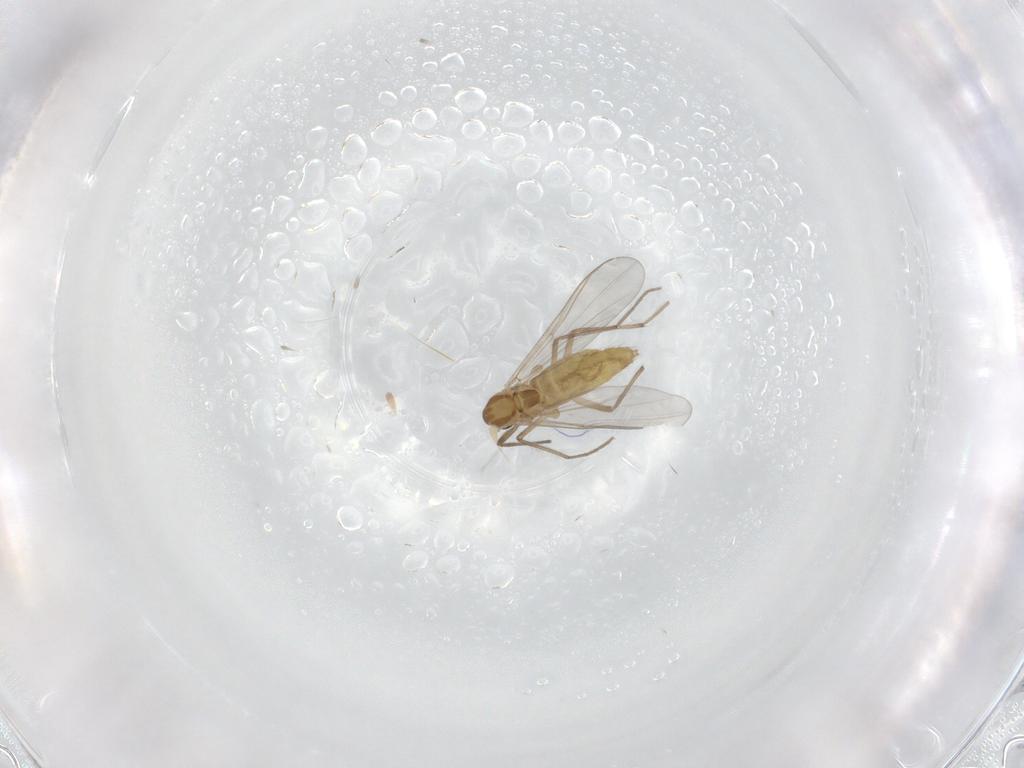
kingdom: Animalia
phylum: Arthropoda
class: Insecta
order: Diptera
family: Chironomidae
